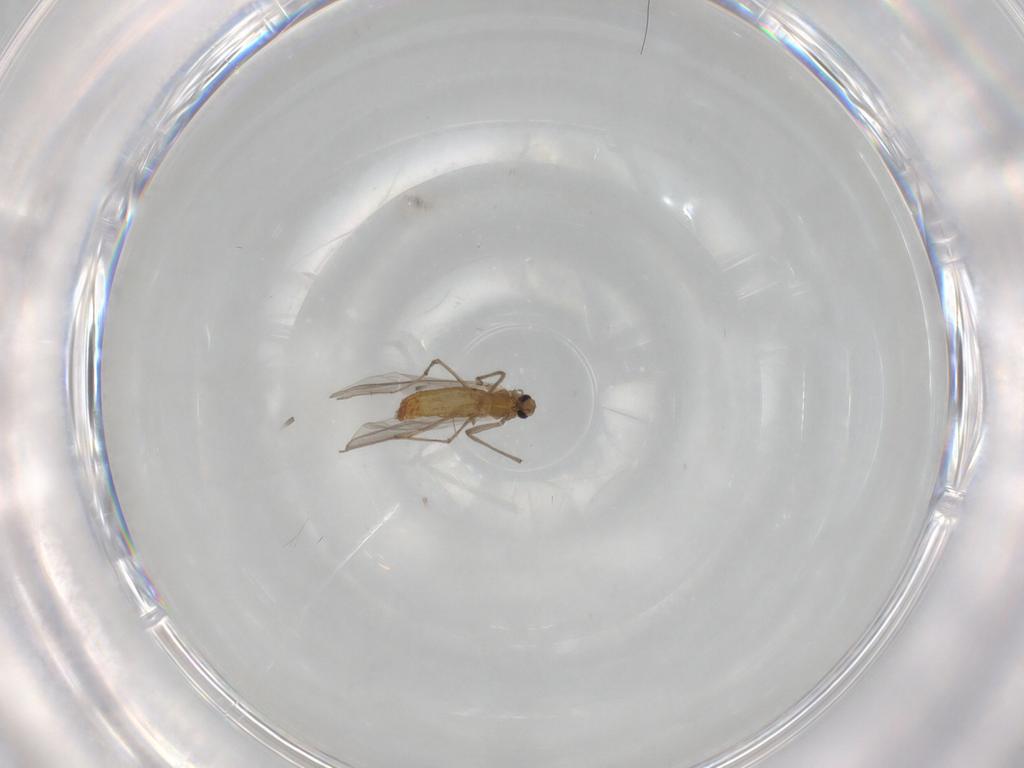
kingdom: Animalia
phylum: Arthropoda
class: Insecta
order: Diptera
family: Chironomidae
